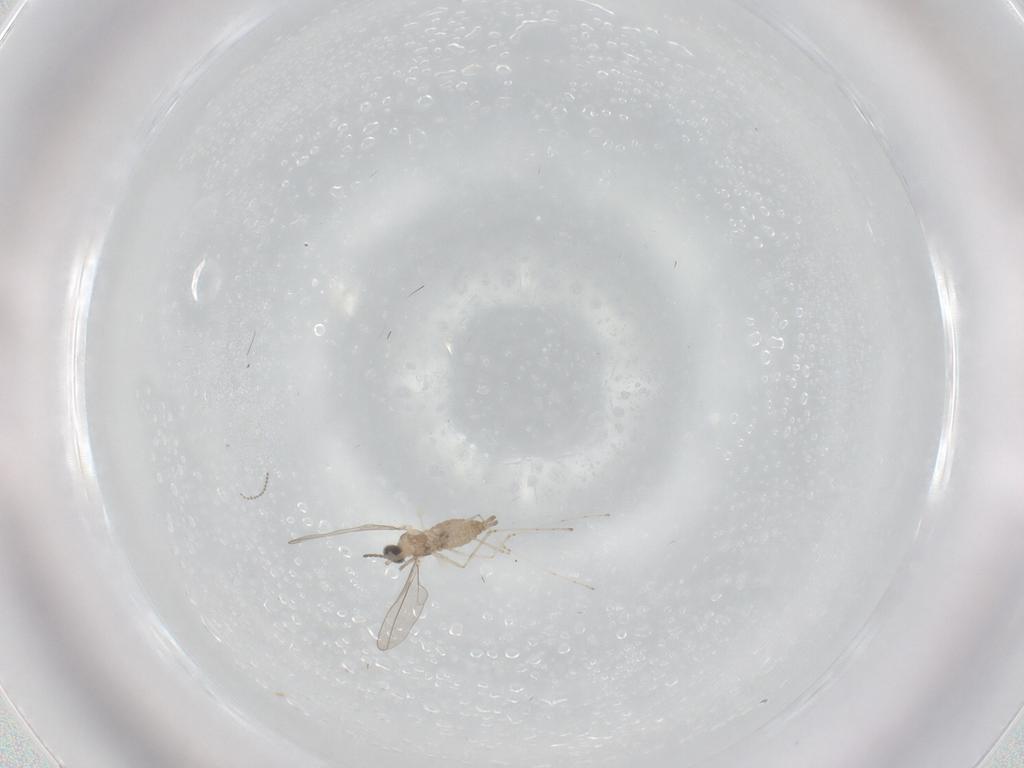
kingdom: Animalia
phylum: Arthropoda
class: Insecta
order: Diptera
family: Cecidomyiidae
